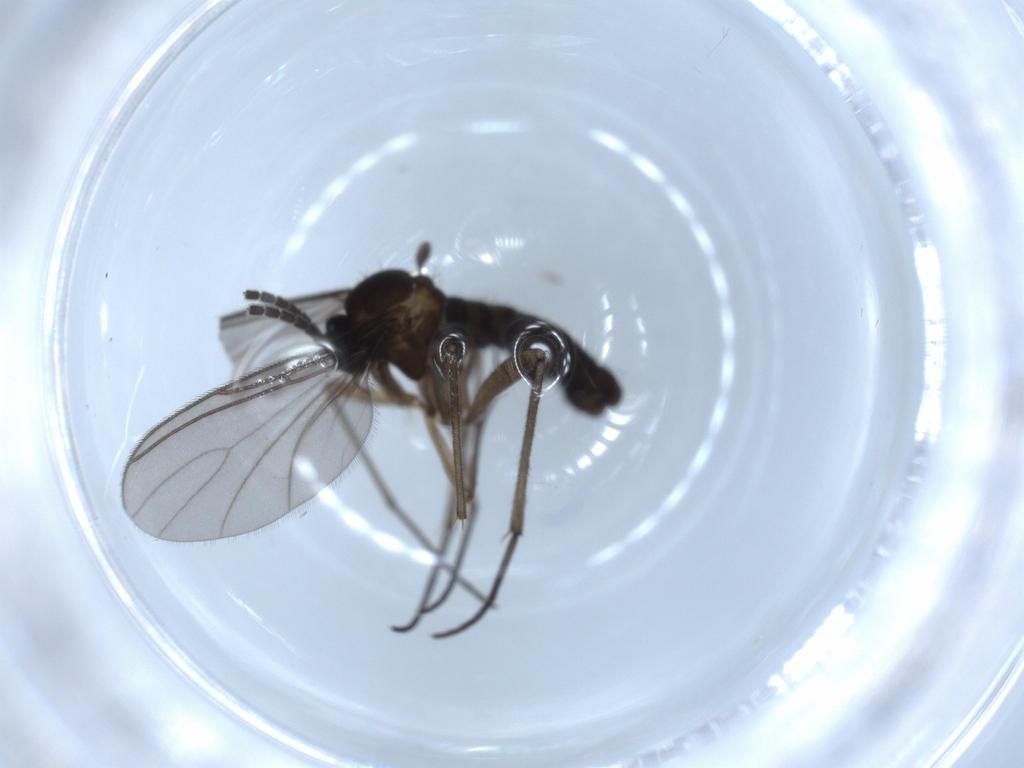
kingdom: Animalia
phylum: Arthropoda
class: Insecta
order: Diptera
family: Sciaridae
